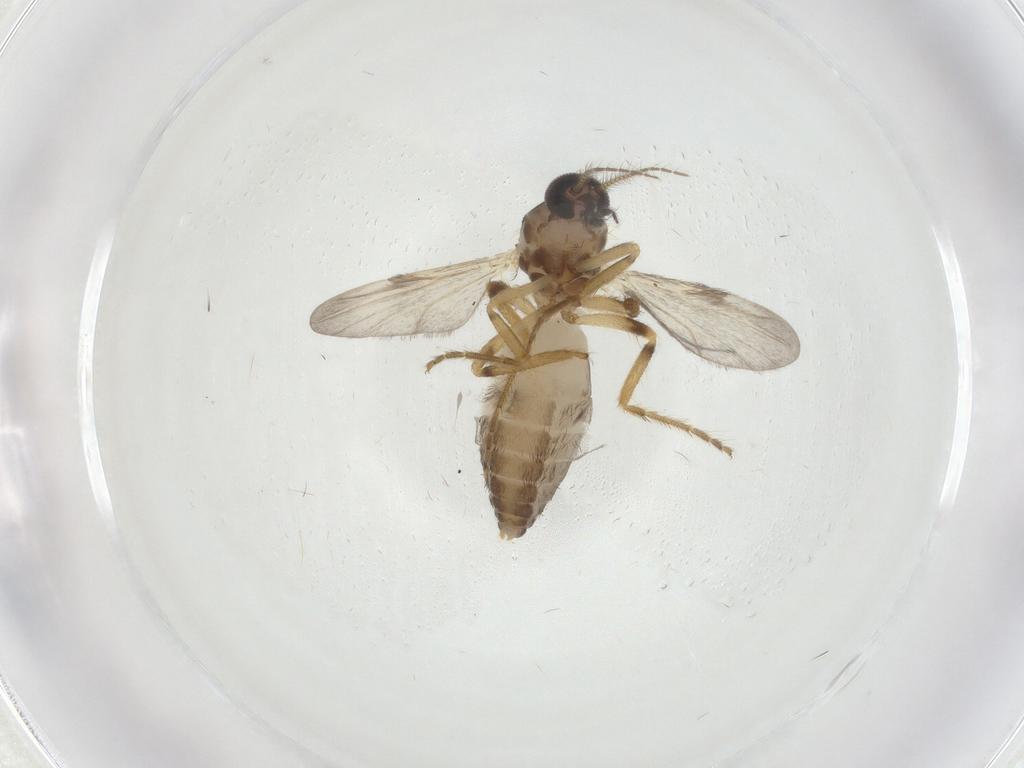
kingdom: Animalia
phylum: Arthropoda
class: Insecta
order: Diptera
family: Ceratopogonidae
